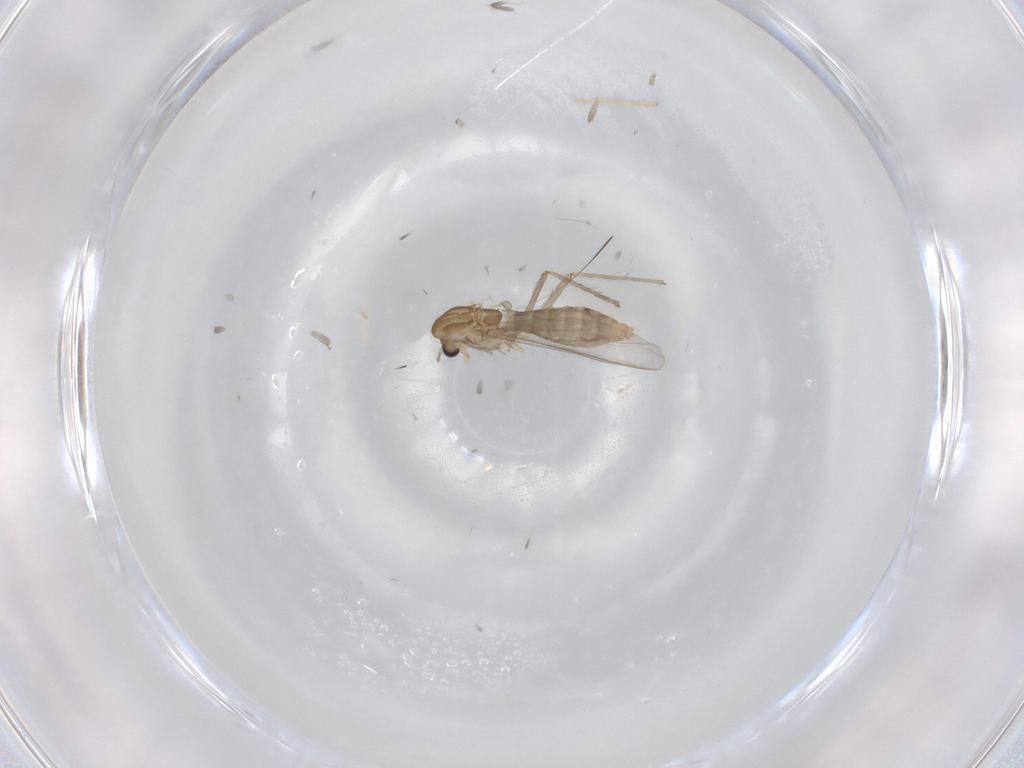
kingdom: Animalia
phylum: Arthropoda
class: Insecta
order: Diptera
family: Chironomidae
